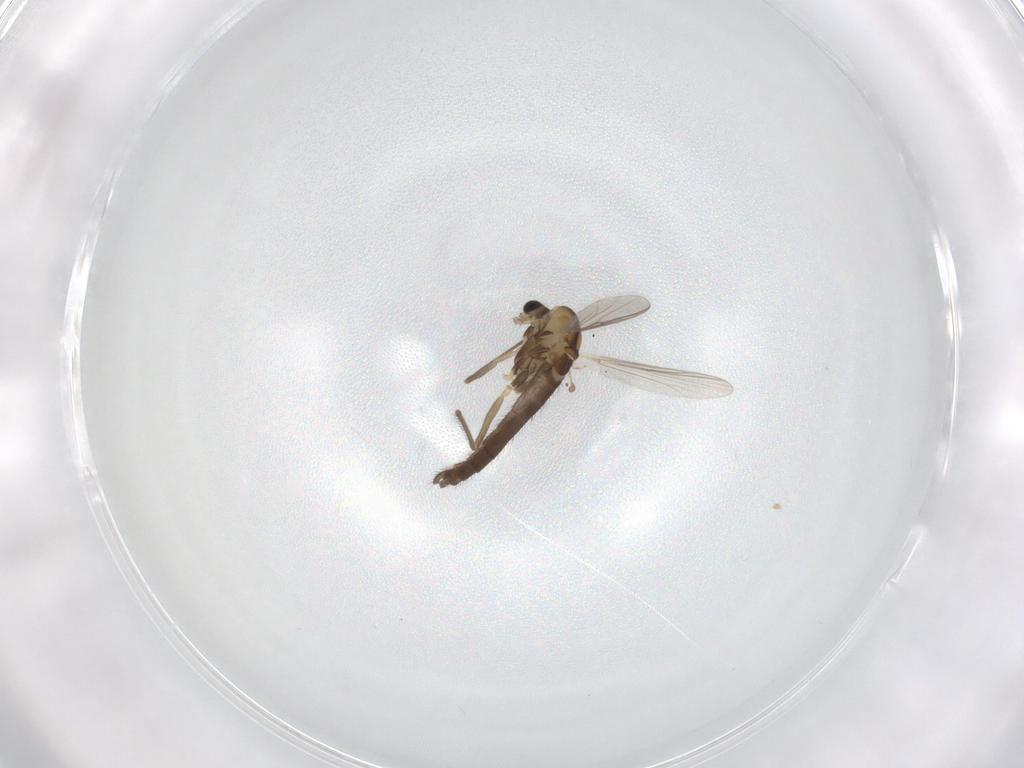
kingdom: Animalia
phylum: Arthropoda
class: Insecta
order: Diptera
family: Chironomidae
